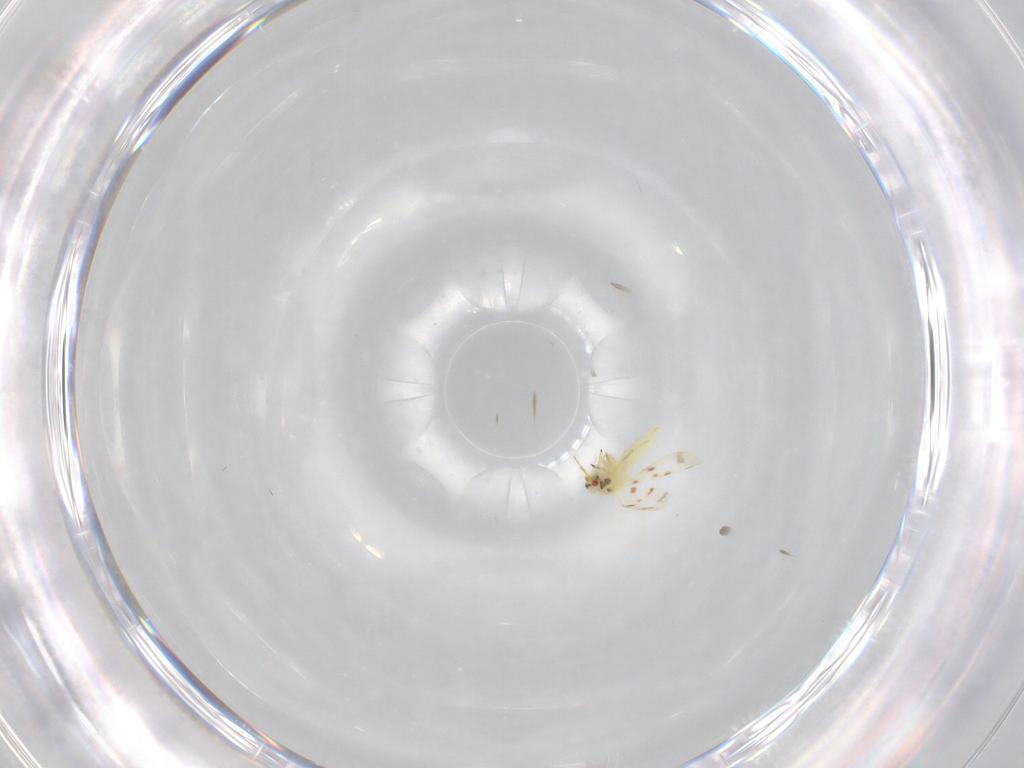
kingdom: Animalia
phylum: Arthropoda
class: Insecta
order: Hemiptera
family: Aleyrodidae
